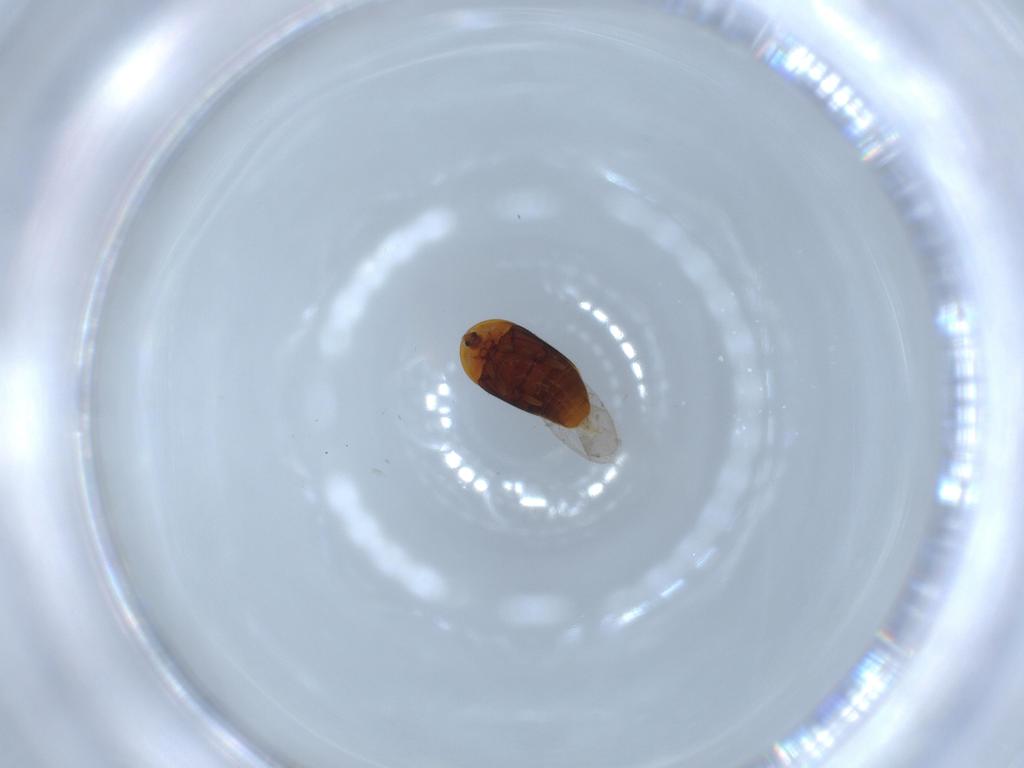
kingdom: Animalia
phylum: Arthropoda
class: Insecta
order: Coleoptera
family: Corylophidae
